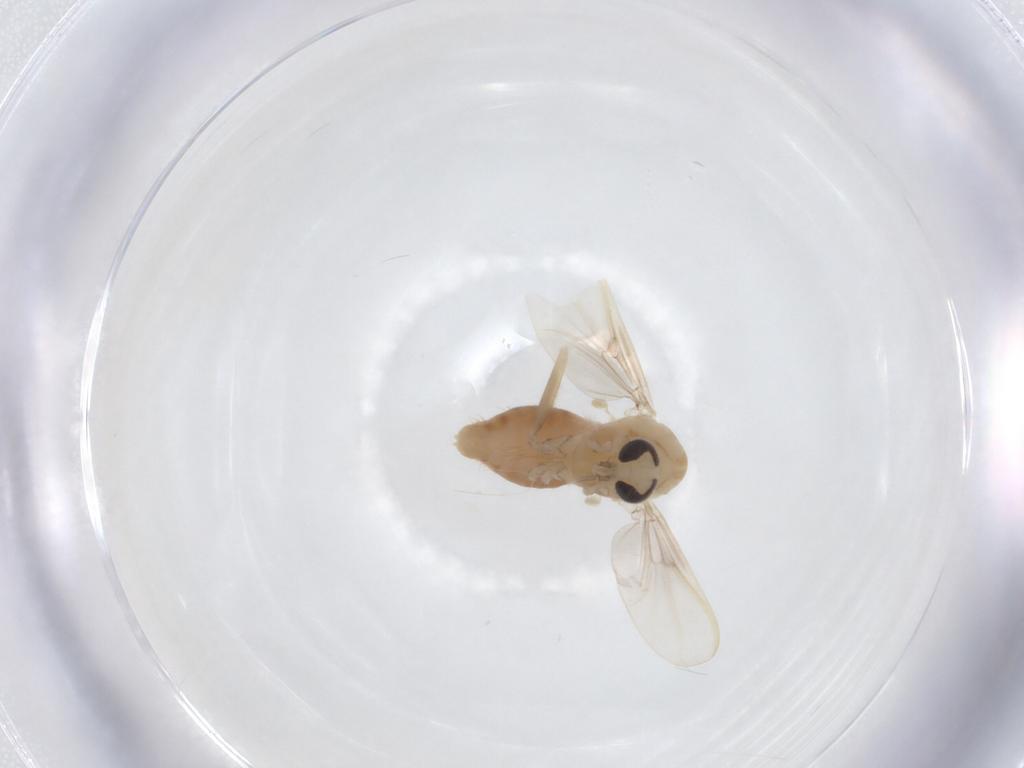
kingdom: Animalia
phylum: Arthropoda
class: Insecta
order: Diptera
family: Chironomidae
